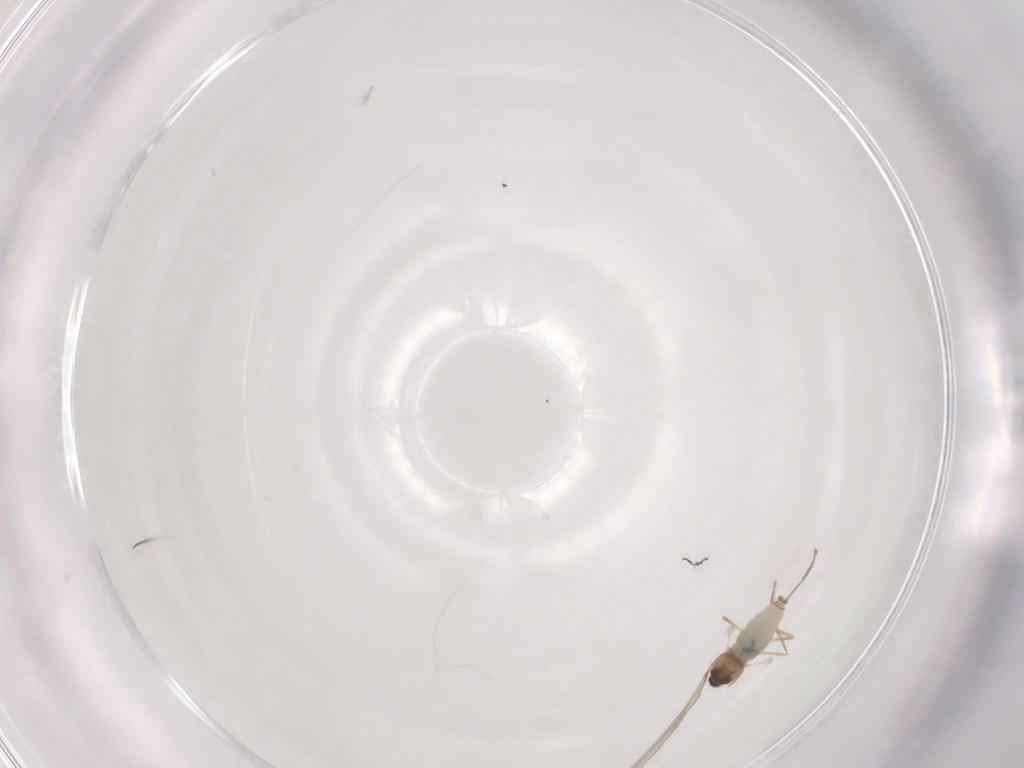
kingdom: Animalia
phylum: Arthropoda
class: Insecta
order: Diptera
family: Cecidomyiidae
